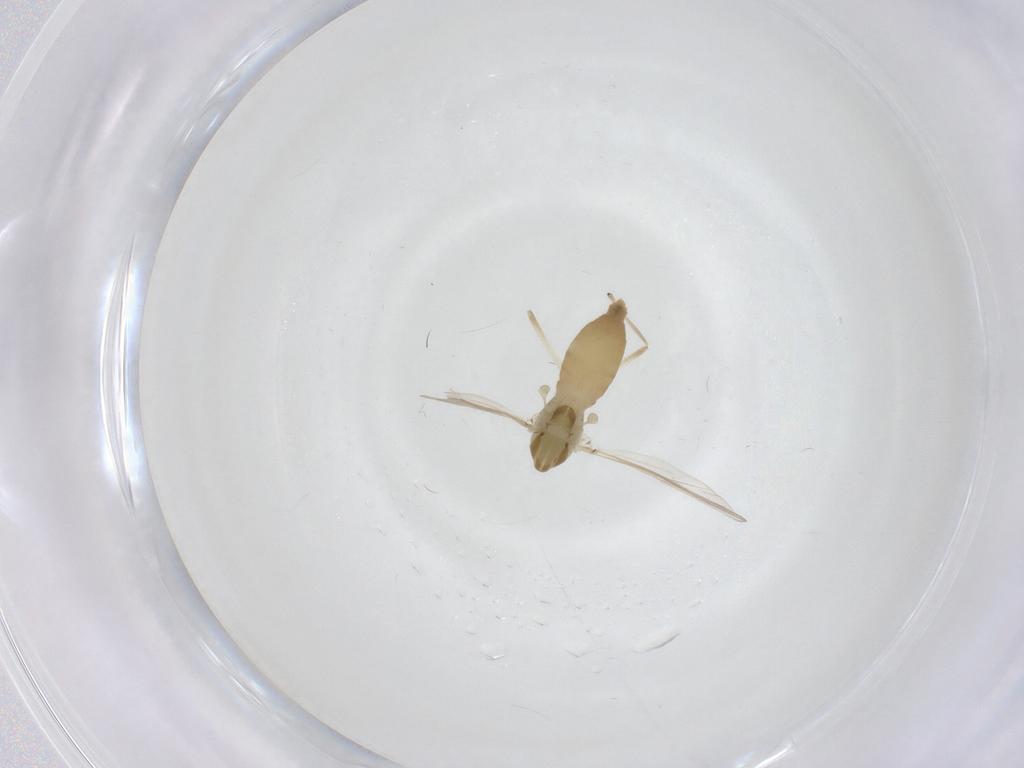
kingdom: Animalia
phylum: Arthropoda
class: Insecta
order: Diptera
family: Chironomidae
